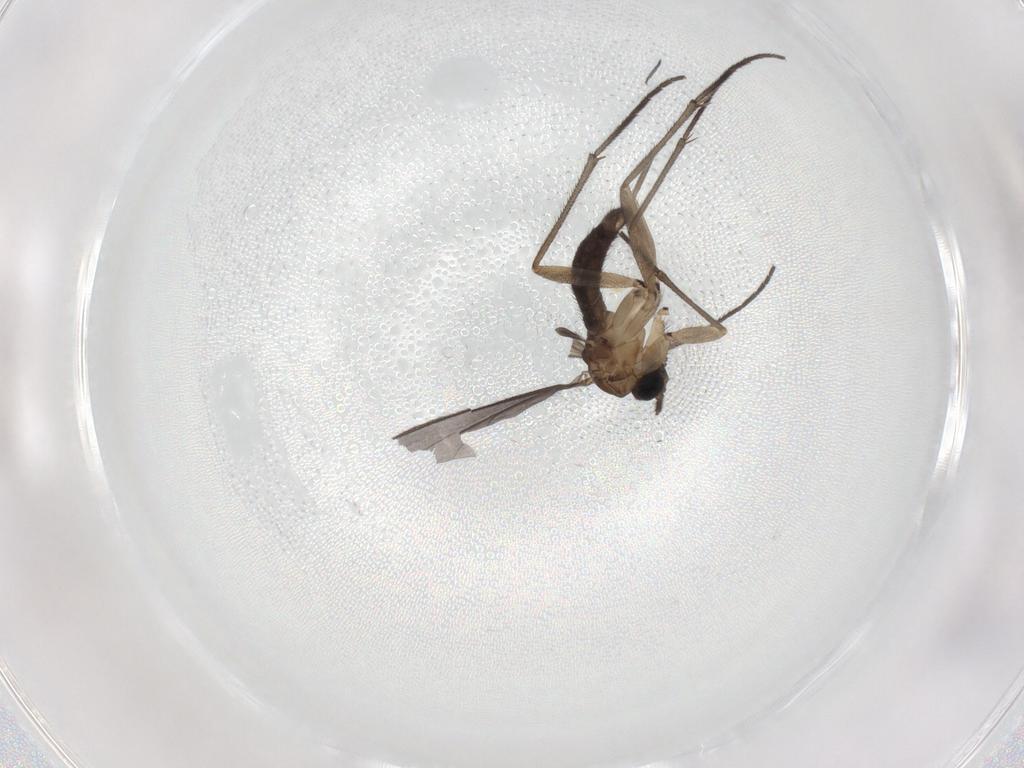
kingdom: Animalia
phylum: Arthropoda
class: Insecta
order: Diptera
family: Sciaridae
